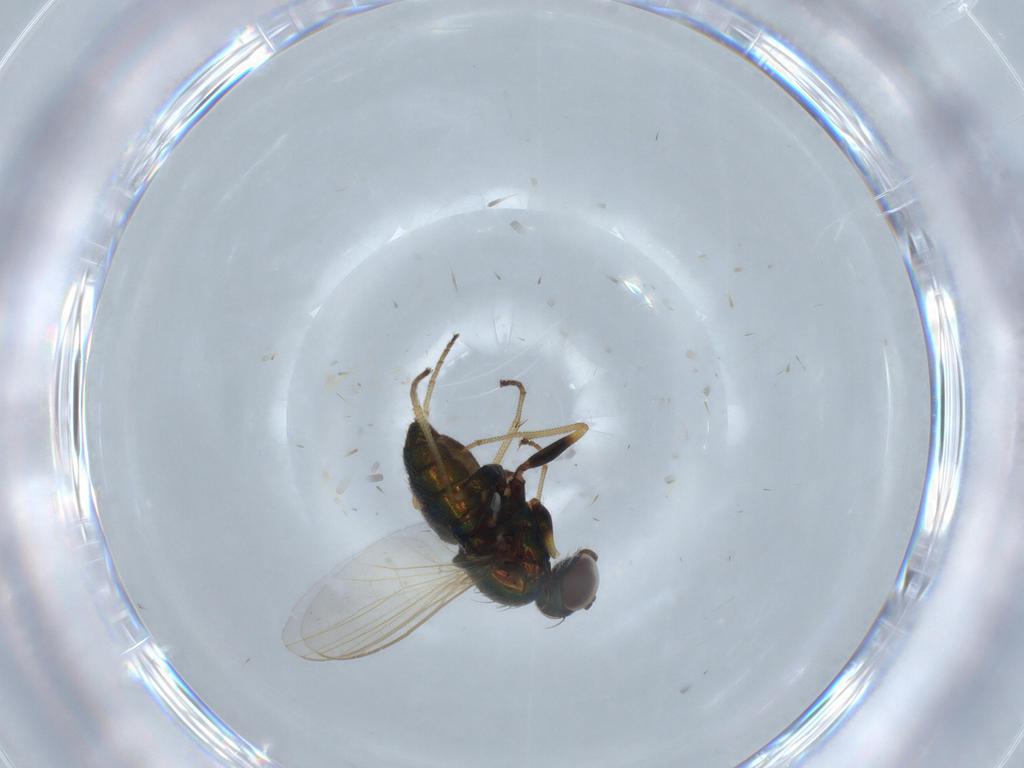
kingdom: Animalia
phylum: Arthropoda
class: Insecta
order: Diptera
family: Dolichopodidae
